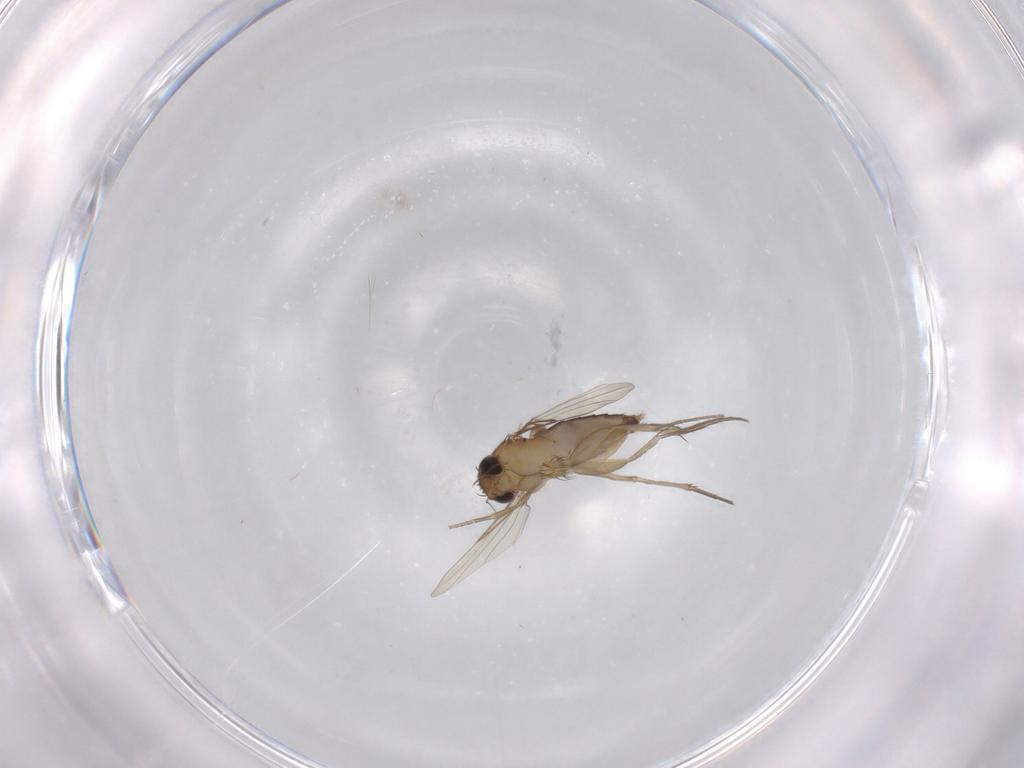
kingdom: Animalia
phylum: Arthropoda
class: Insecta
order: Diptera
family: Phoridae
